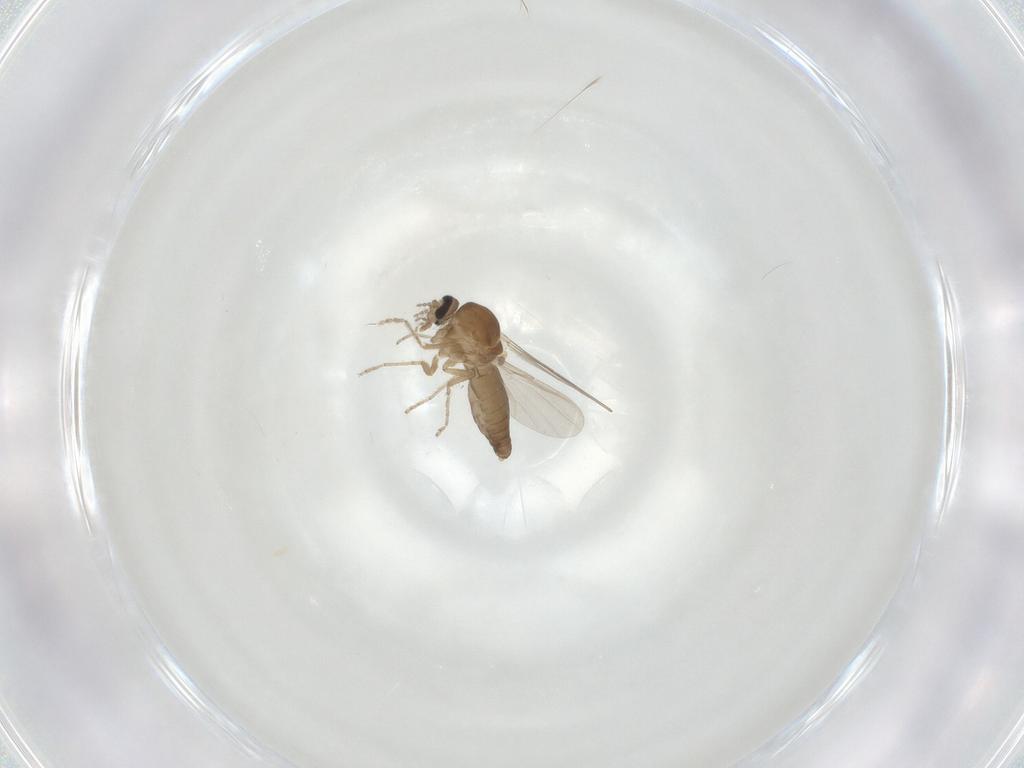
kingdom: Animalia
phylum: Arthropoda
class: Insecta
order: Diptera
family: Ceratopogonidae
